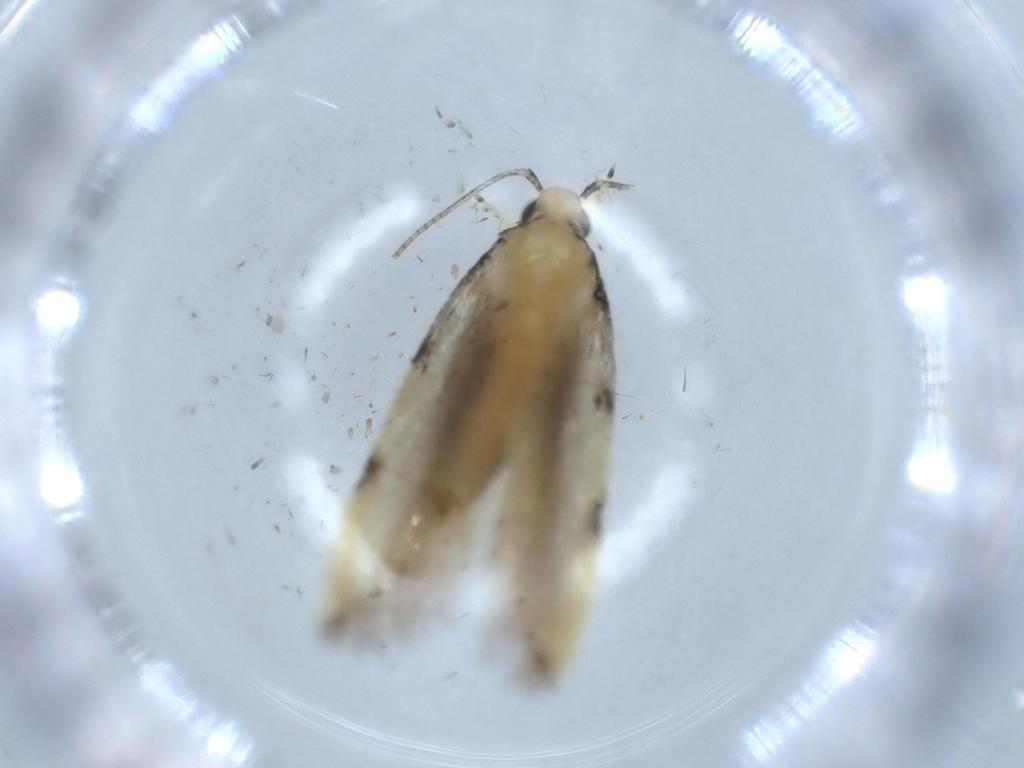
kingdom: Animalia
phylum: Arthropoda
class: Insecta
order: Lepidoptera
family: Autostichidae
